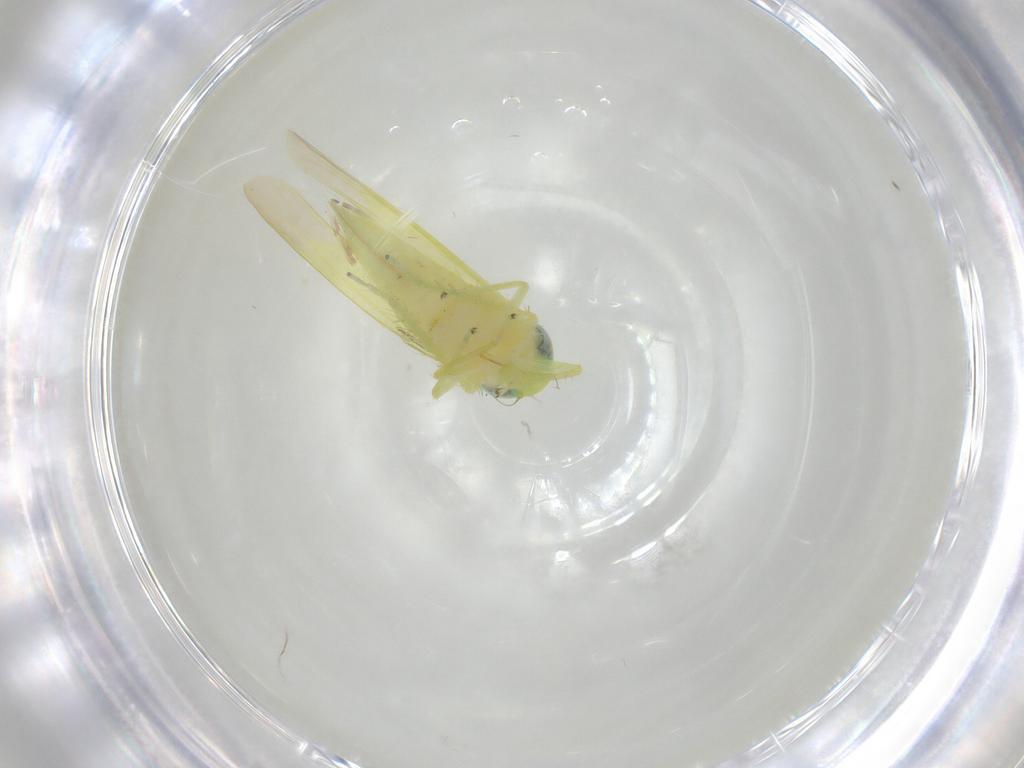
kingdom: Animalia
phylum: Arthropoda
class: Insecta
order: Hemiptera
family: Cicadellidae
